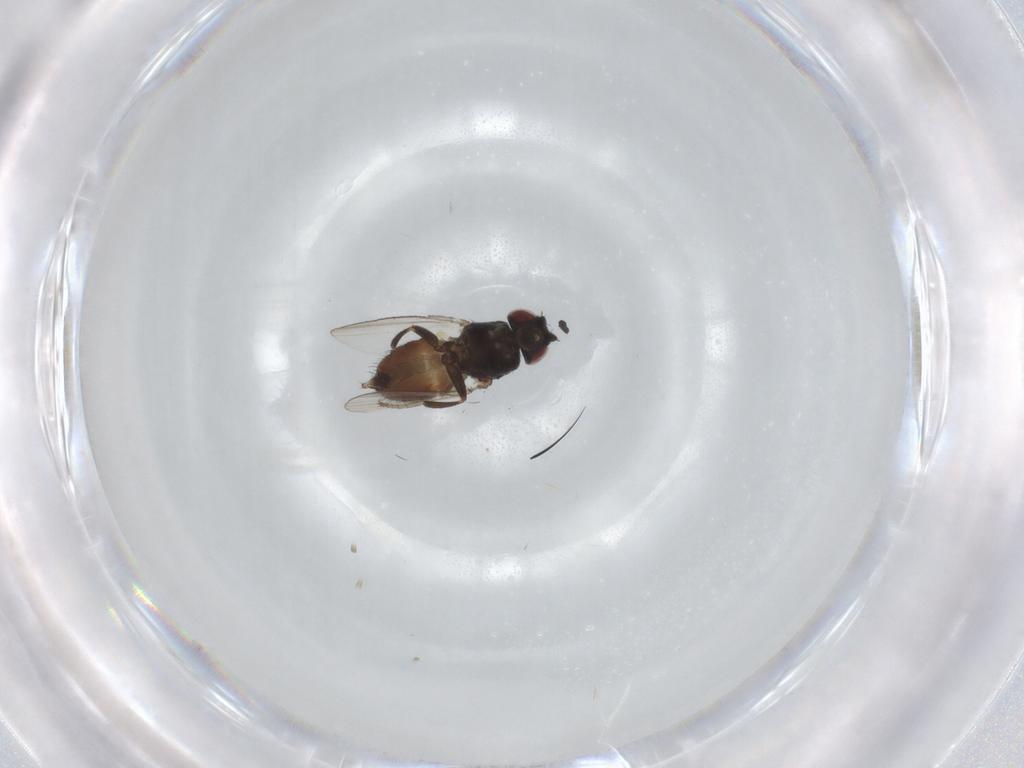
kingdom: Animalia
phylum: Arthropoda
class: Insecta
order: Diptera
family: Milichiidae
